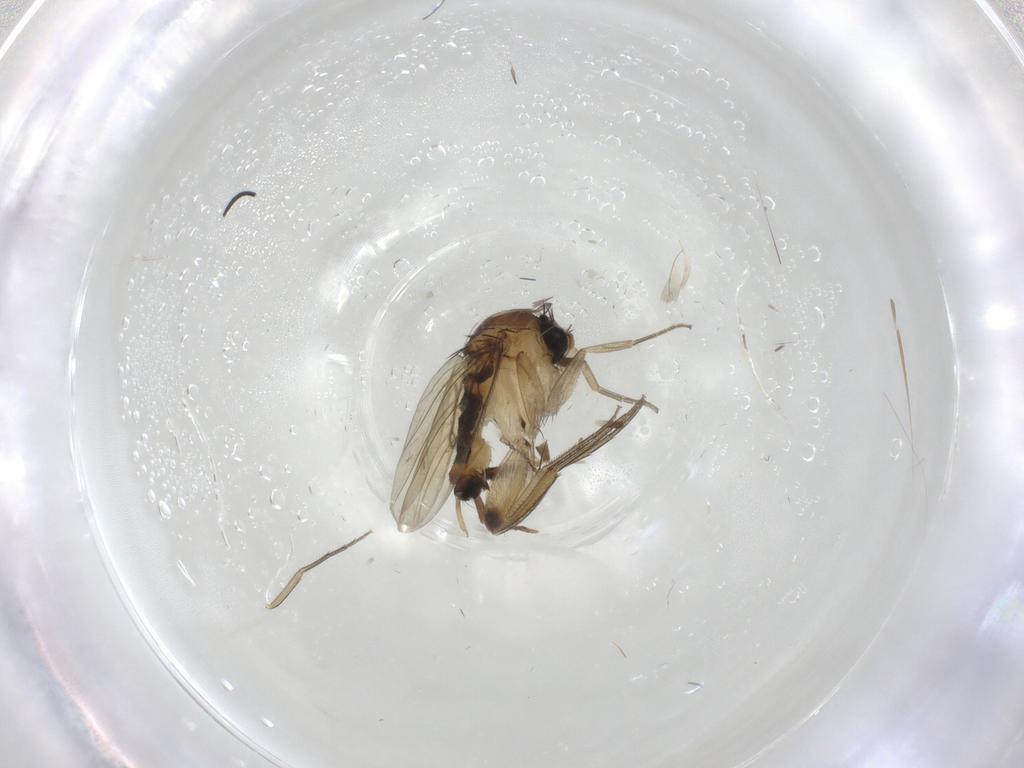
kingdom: Animalia
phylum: Arthropoda
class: Insecta
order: Diptera
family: Phoridae
